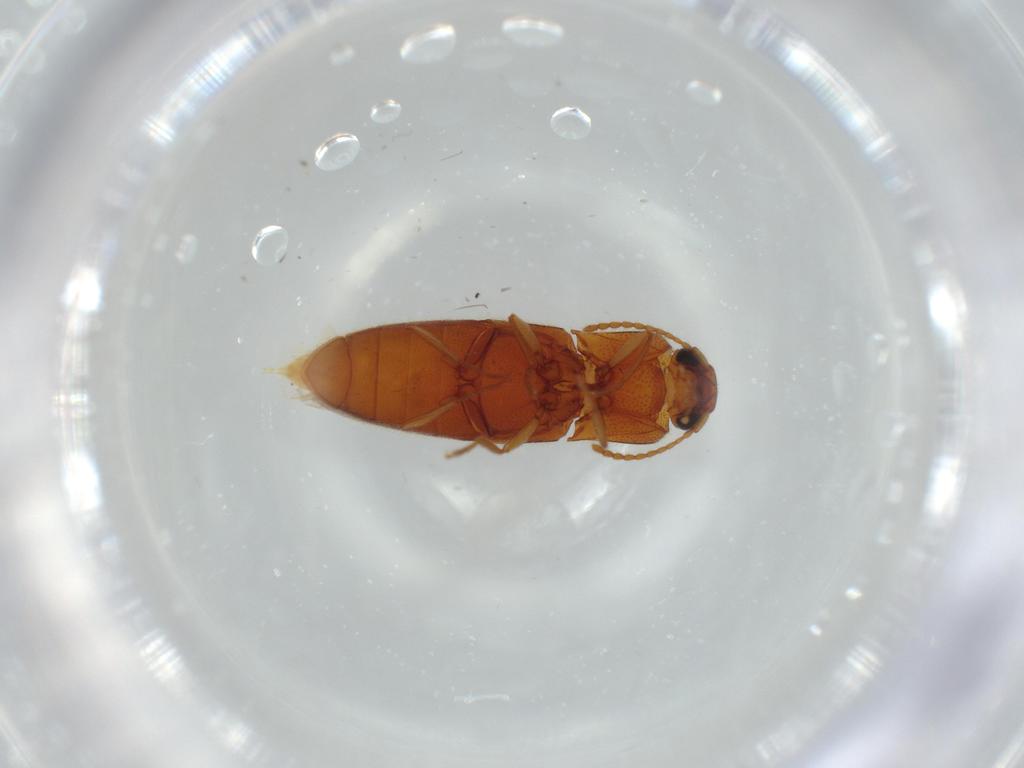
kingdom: Animalia
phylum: Arthropoda
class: Insecta
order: Coleoptera
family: Elateridae
